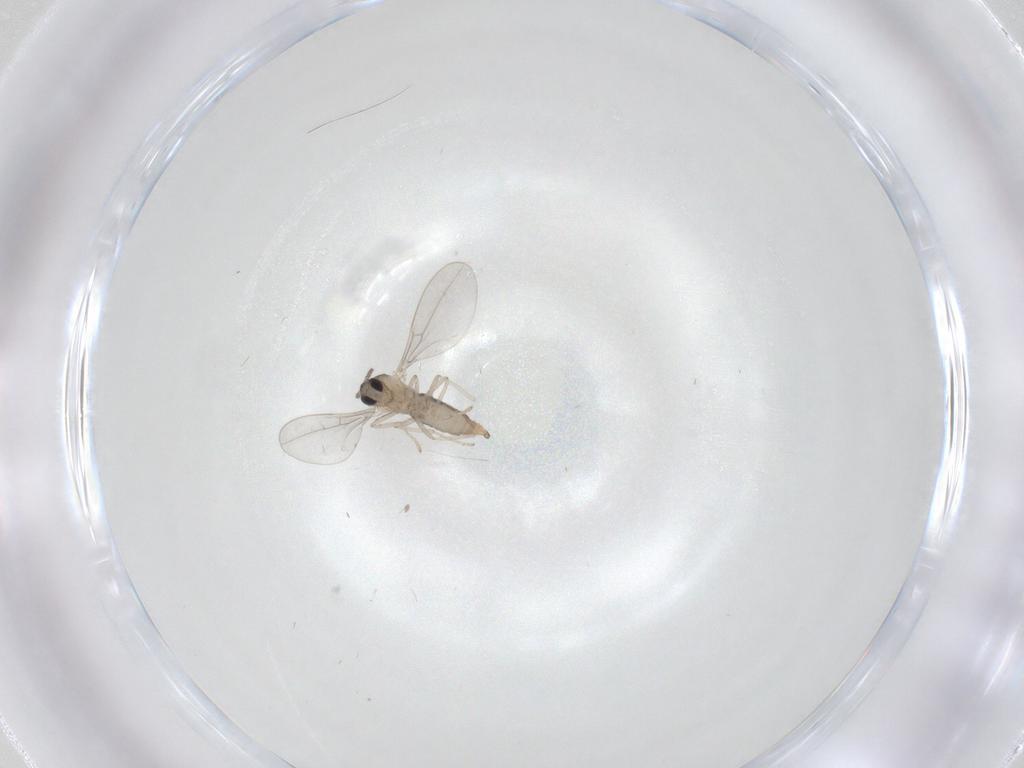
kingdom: Animalia
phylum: Arthropoda
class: Insecta
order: Diptera
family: Cecidomyiidae
